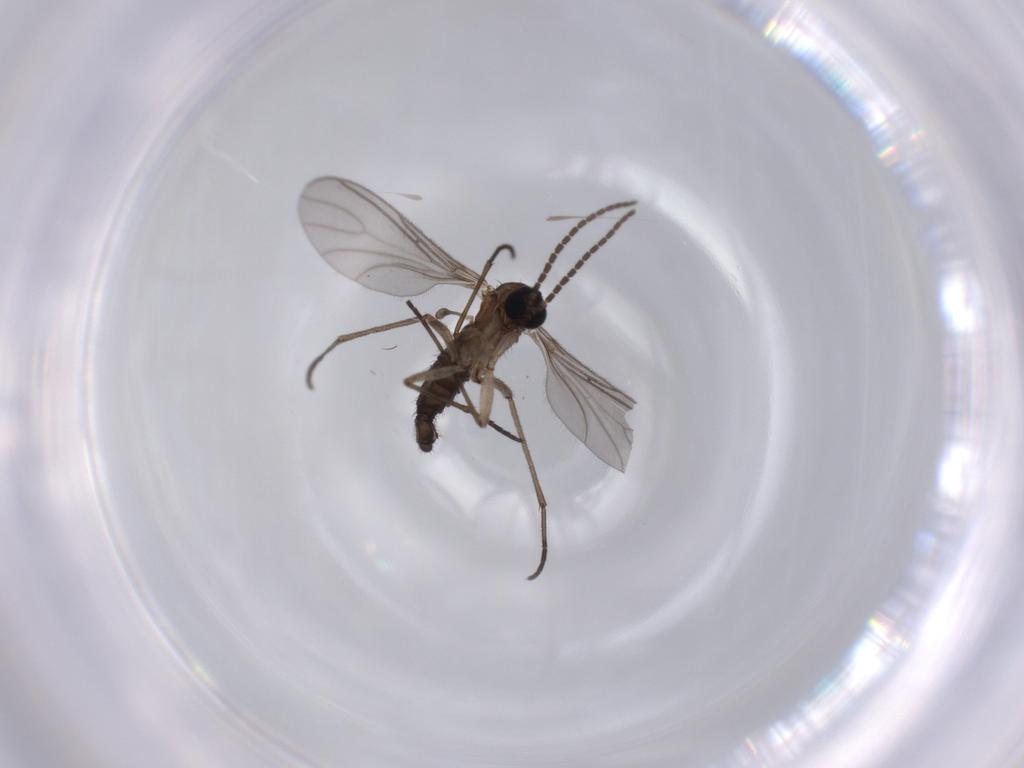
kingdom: Animalia
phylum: Arthropoda
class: Insecta
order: Diptera
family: Sciaridae
